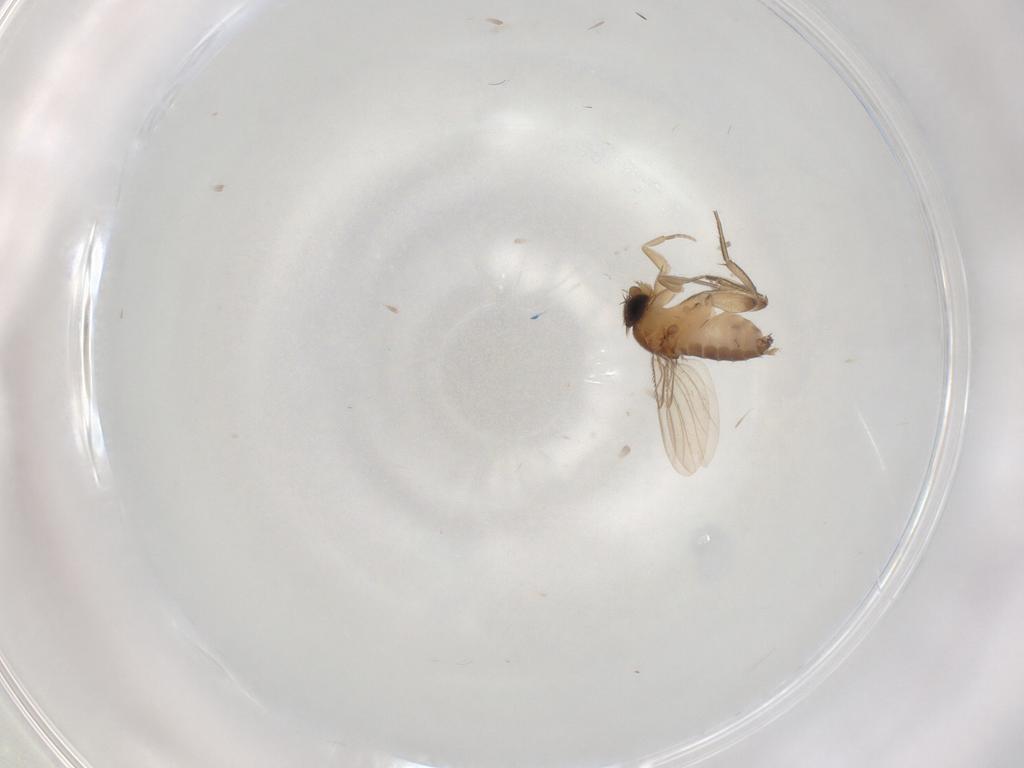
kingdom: Animalia
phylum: Arthropoda
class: Insecta
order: Diptera
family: Phoridae
